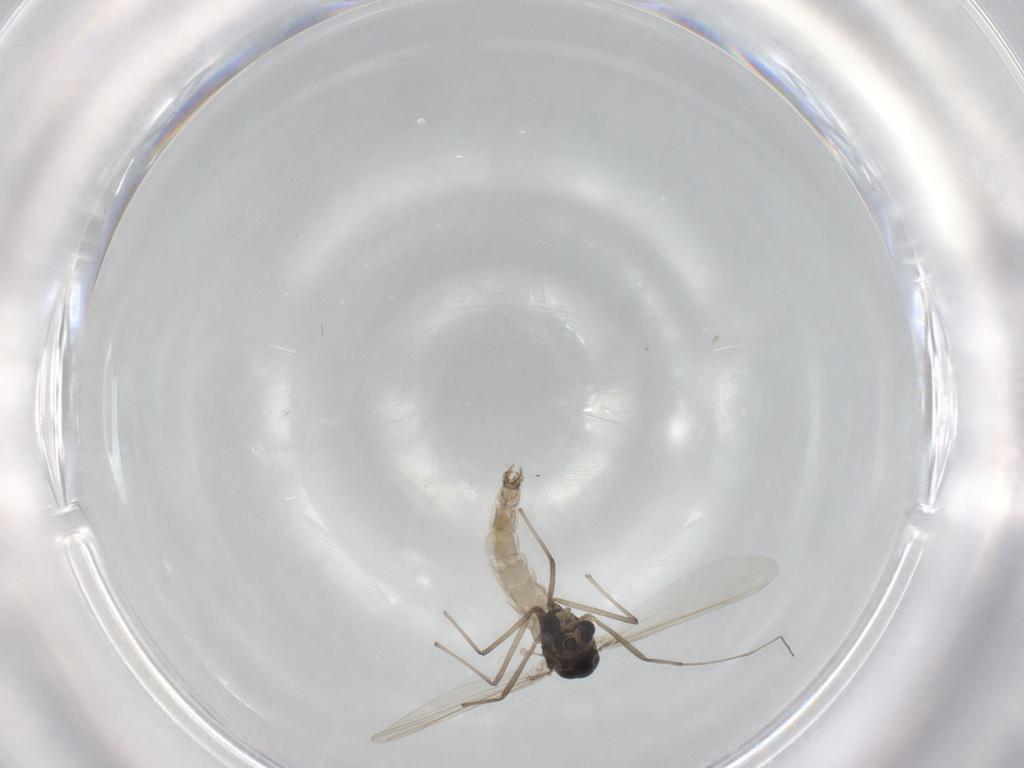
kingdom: Animalia
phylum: Arthropoda
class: Insecta
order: Diptera
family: Chironomidae
